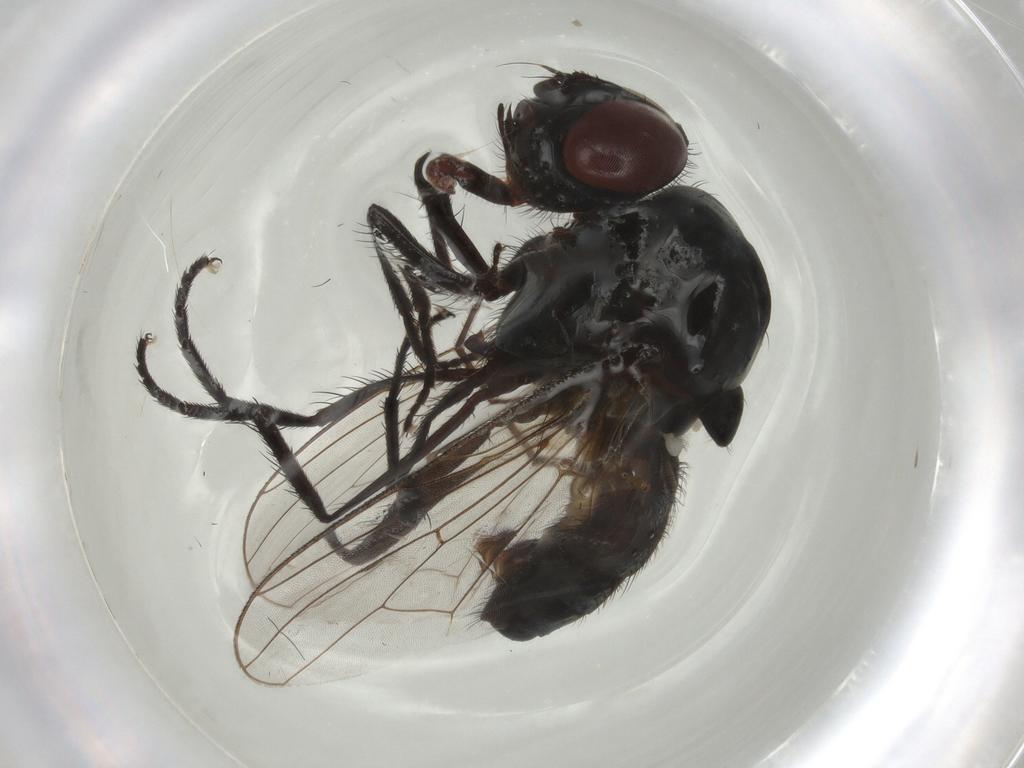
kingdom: Animalia
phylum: Arthropoda
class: Insecta
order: Diptera
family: Anthomyiidae
